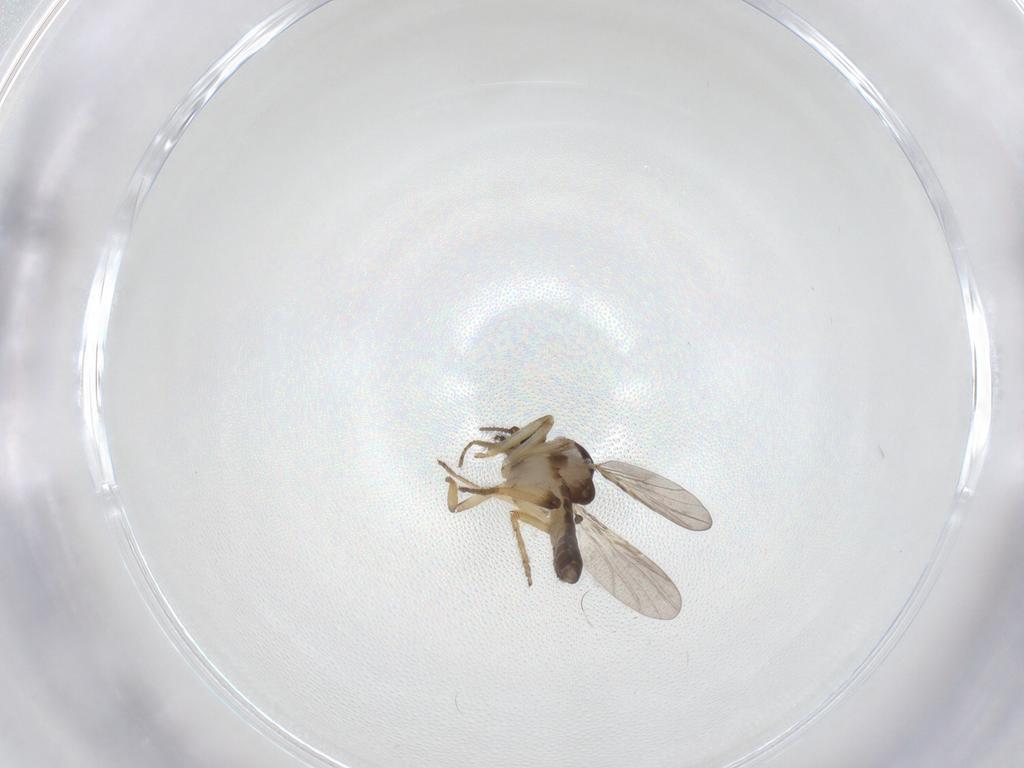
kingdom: Animalia
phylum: Arthropoda
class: Insecta
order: Diptera
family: Ceratopogonidae
